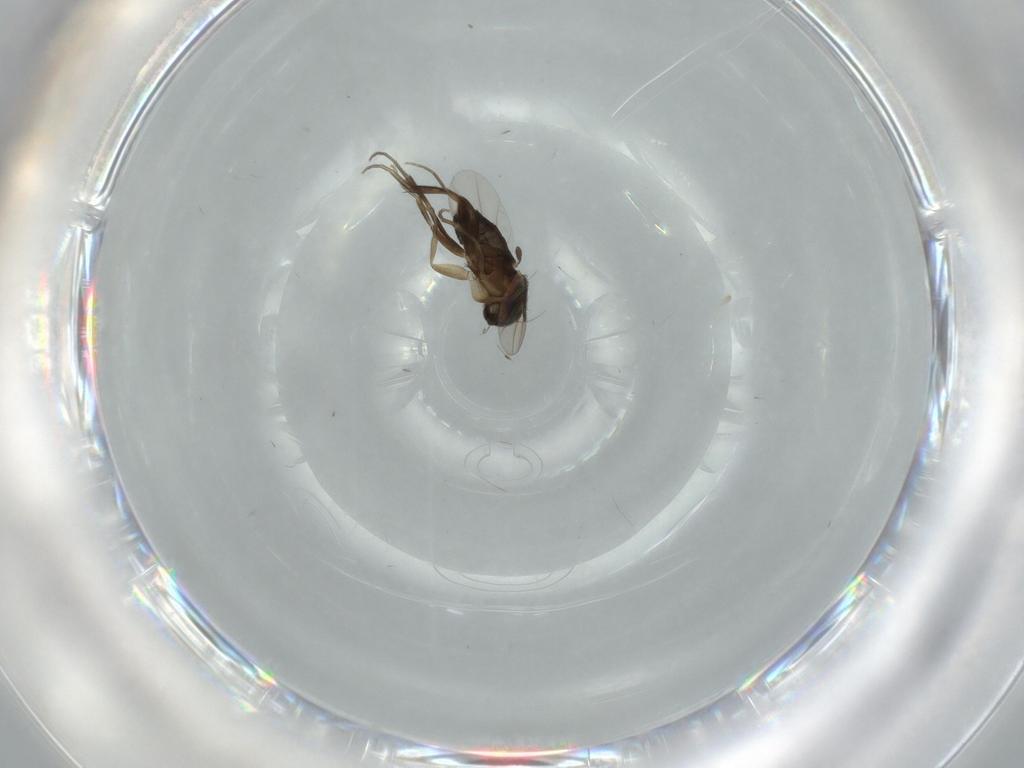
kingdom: Animalia
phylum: Arthropoda
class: Insecta
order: Diptera
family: Phoridae
